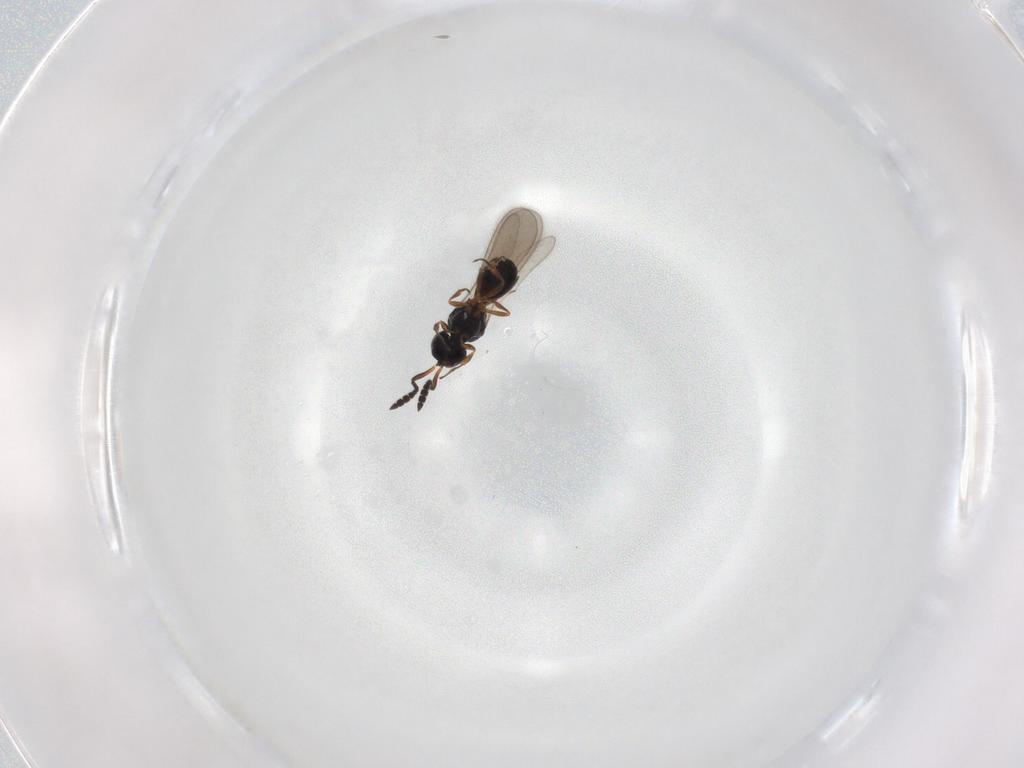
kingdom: Animalia
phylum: Arthropoda
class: Insecta
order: Hymenoptera
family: Scelionidae
